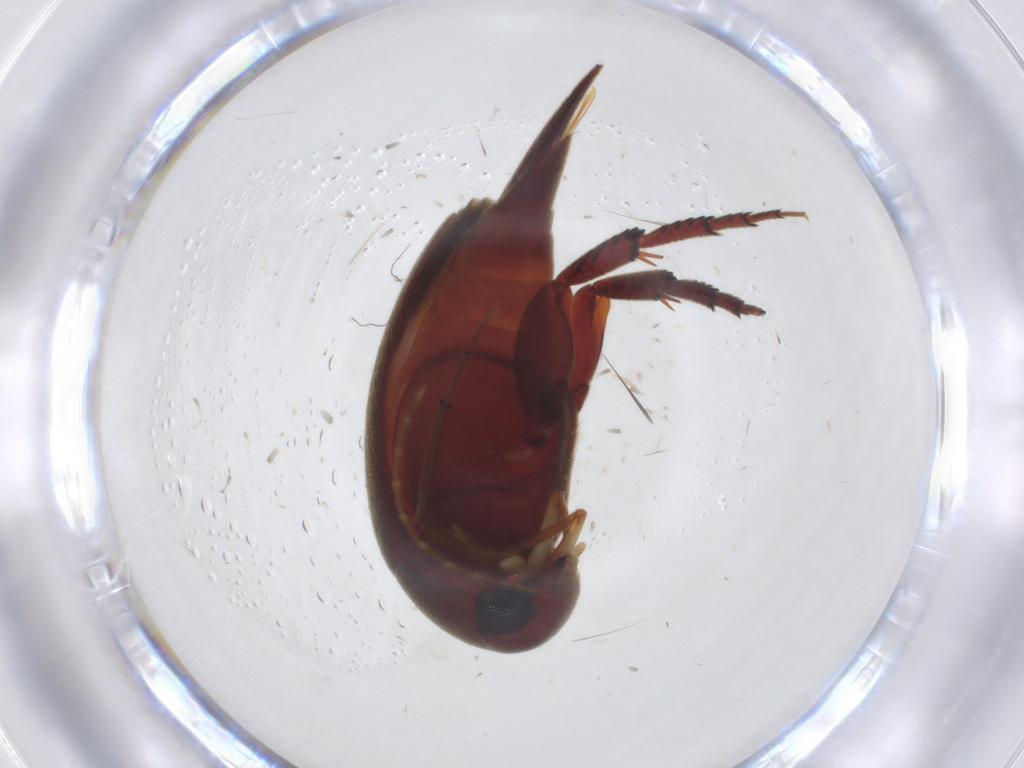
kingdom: Animalia
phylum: Arthropoda
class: Insecta
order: Coleoptera
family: Mordellidae
